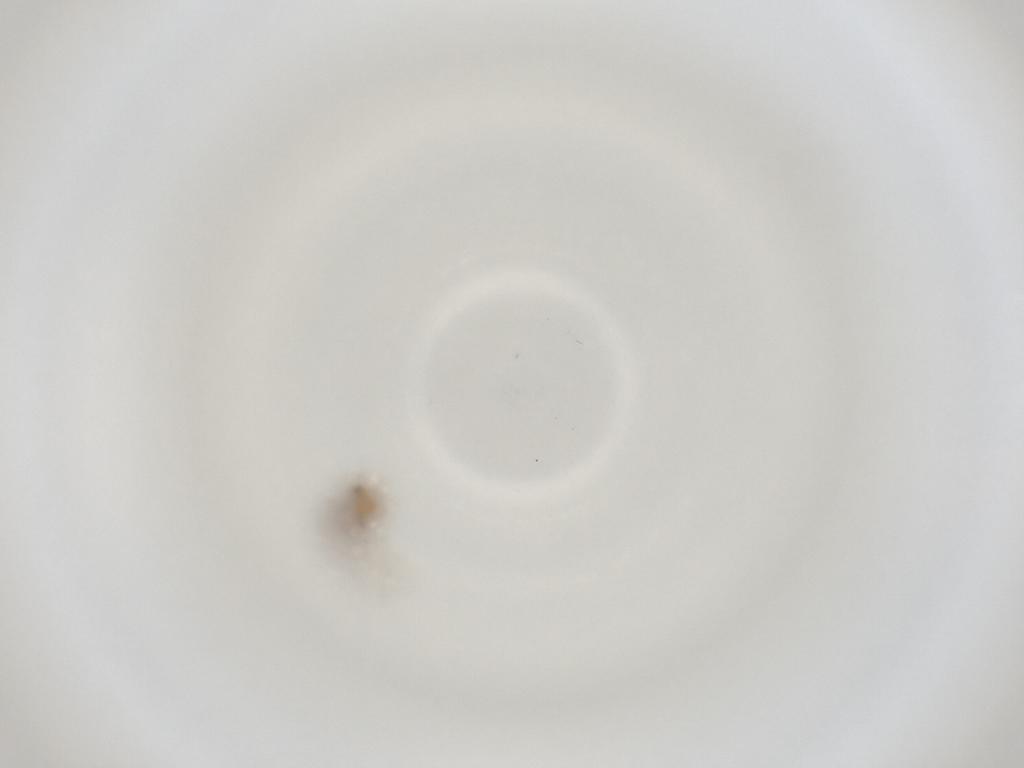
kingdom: Animalia
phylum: Arthropoda
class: Insecta
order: Diptera
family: Cecidomyiidae
